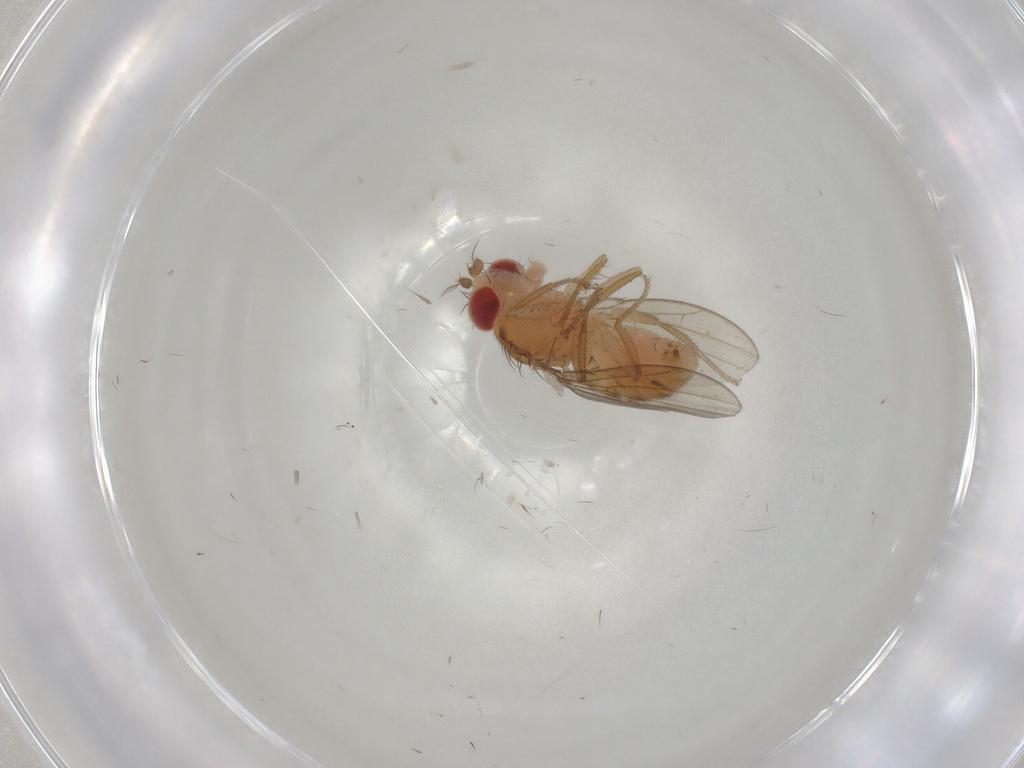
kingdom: Animalia
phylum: Arthropoda
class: Insecta
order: Diptera
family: Drosophilidae
